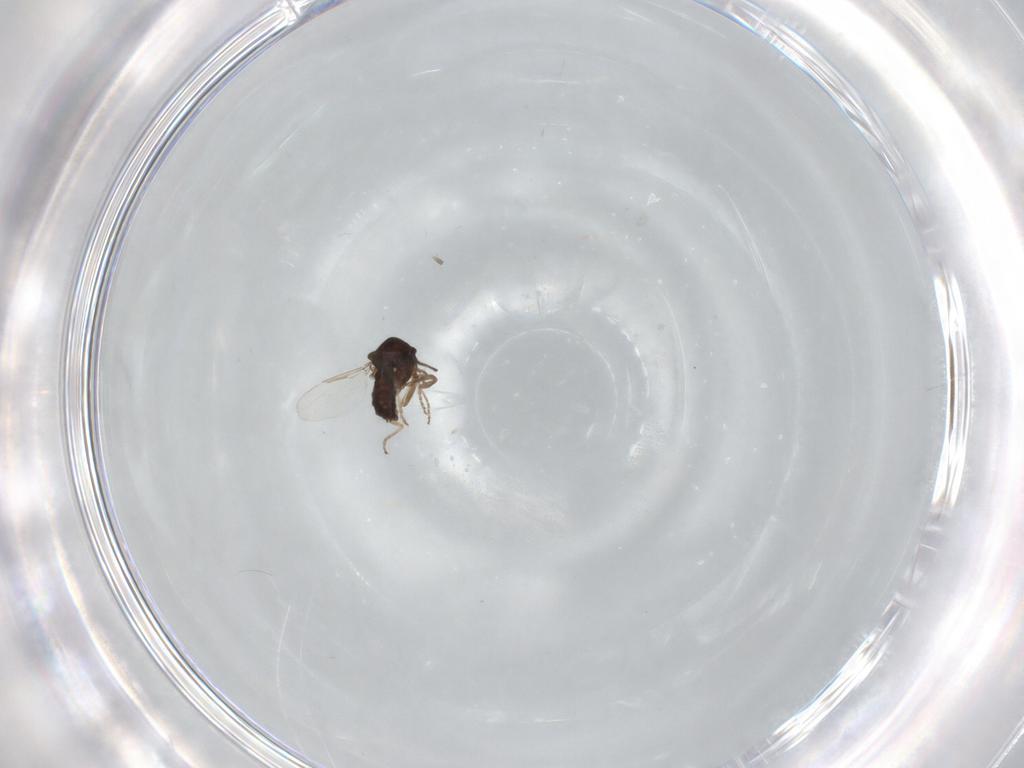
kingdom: Animalia
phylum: Arthropoda
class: Insecta
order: Diptera
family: Ceratopogonidae
